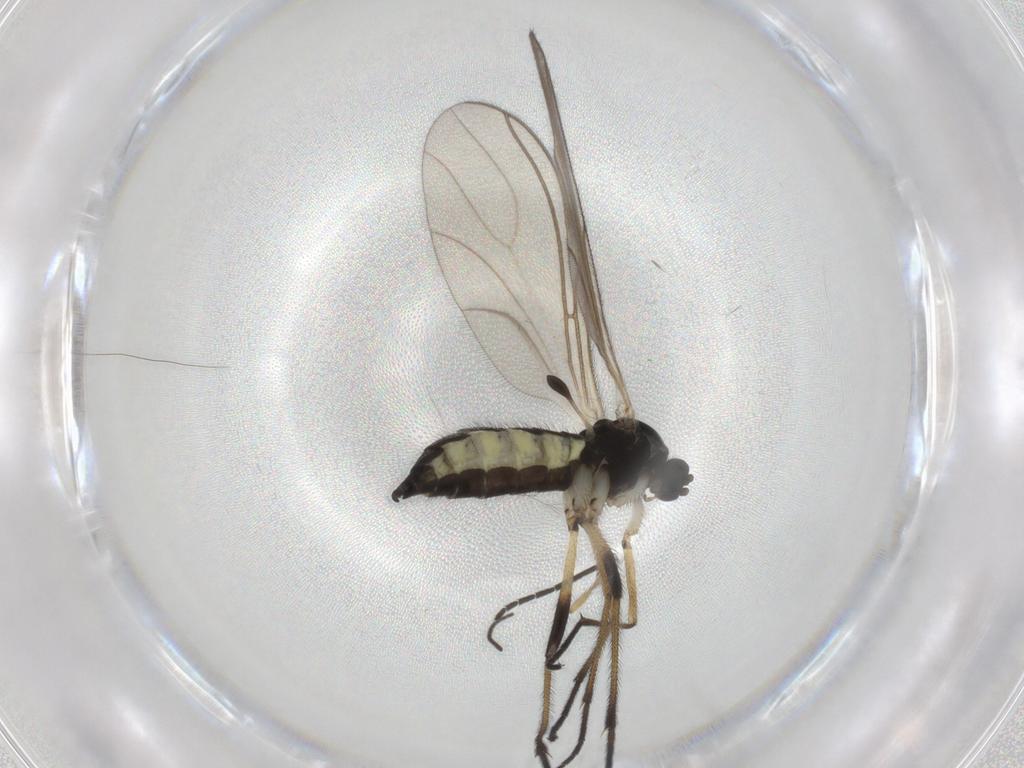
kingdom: Animalia
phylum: Arthropoda
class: Insecta
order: Diptera
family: Sciaridae
